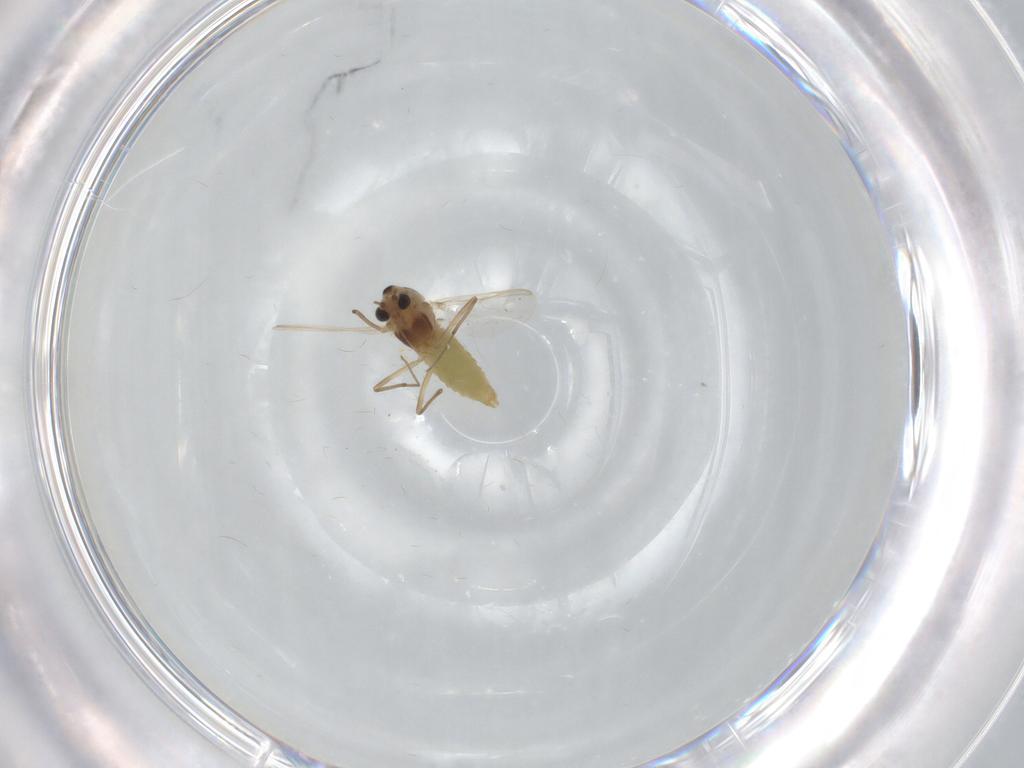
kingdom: Animalia
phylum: Arthropoda
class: Insecta
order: Diptera
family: Chironomidae
